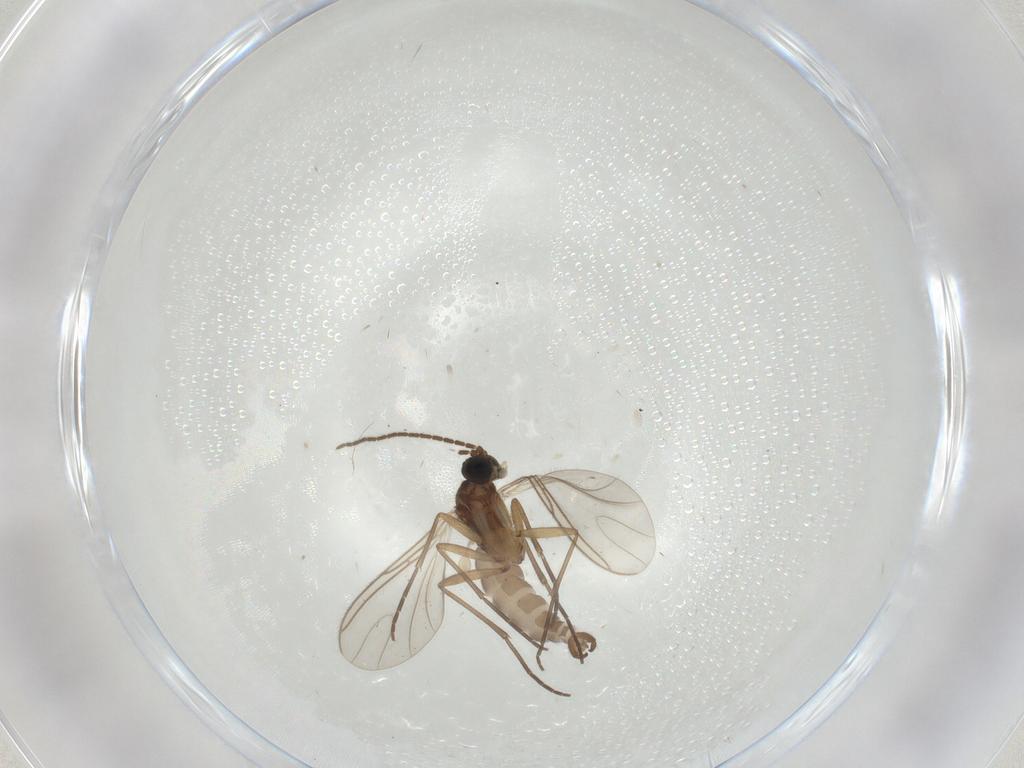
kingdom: Animalia
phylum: Arthropoda
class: Insecta
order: Diptera
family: Sciaridae
